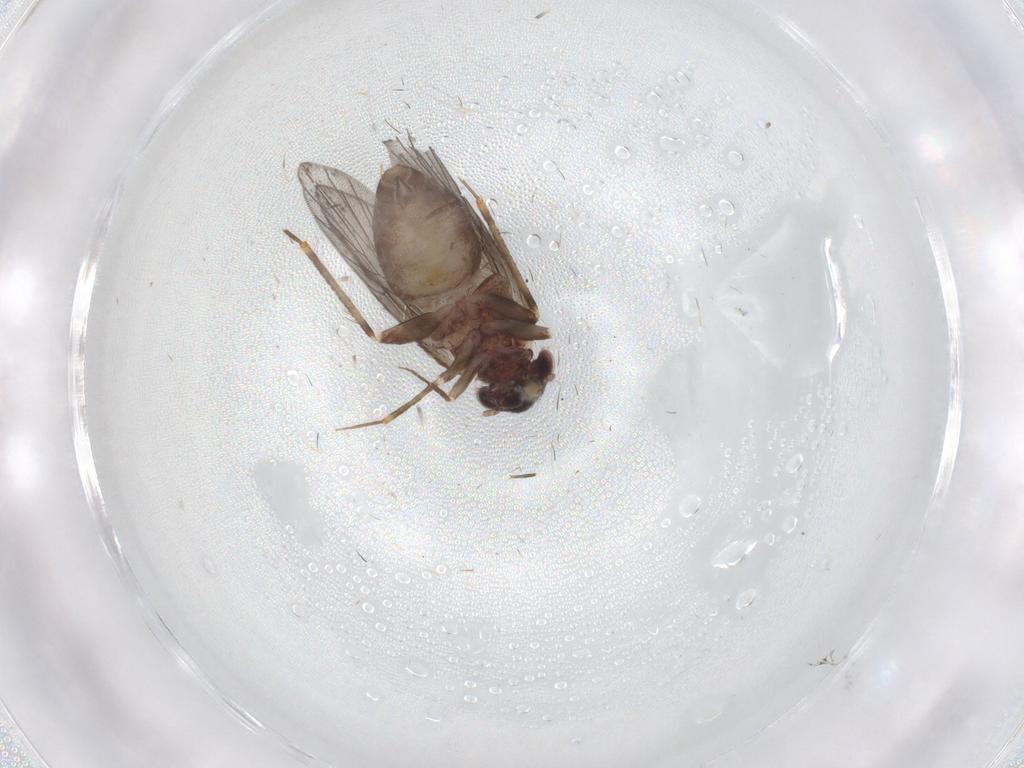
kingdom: Animalia
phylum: Arthropoda
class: Insecta
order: Psocodea
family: Lepidopsocidae
